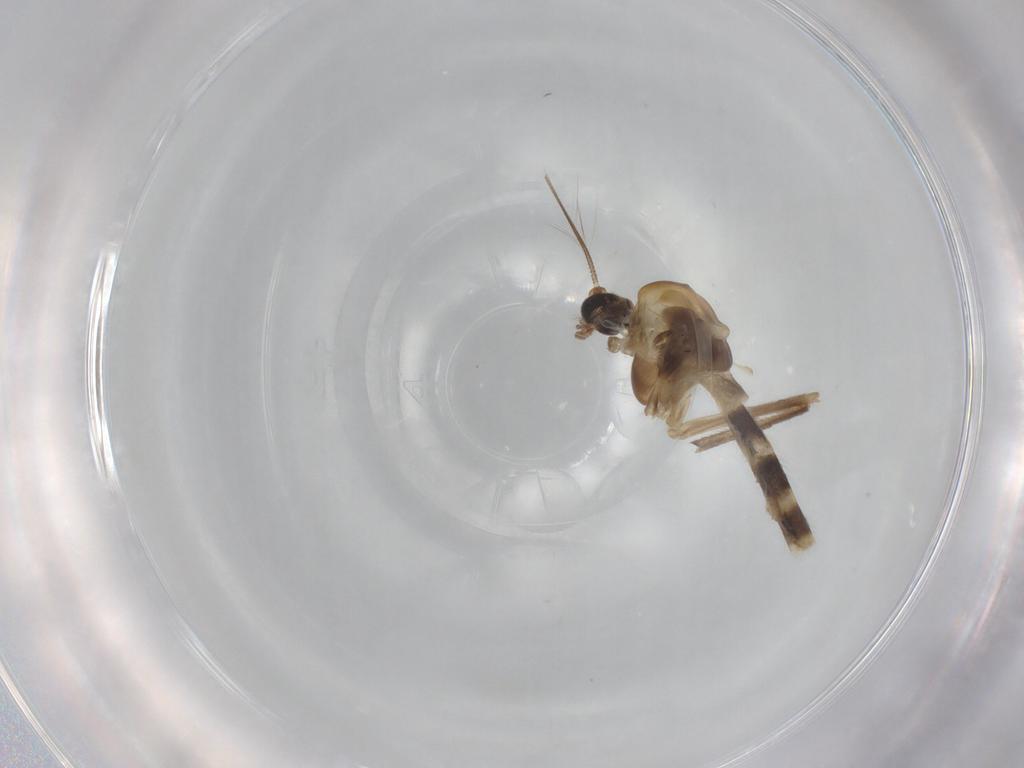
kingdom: Animalia
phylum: Arthropoda
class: Insecta
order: Diptera
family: Chironomidae
